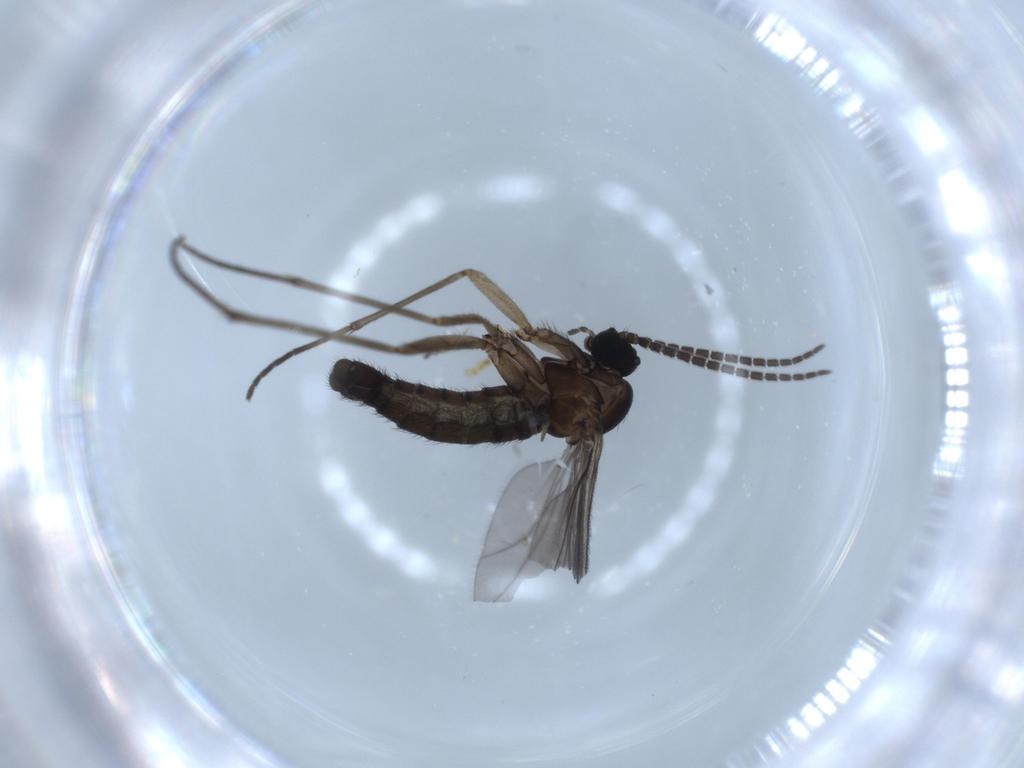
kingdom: Animalia
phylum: Arthropoda
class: Insecta
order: Diptera
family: Sciaridae
